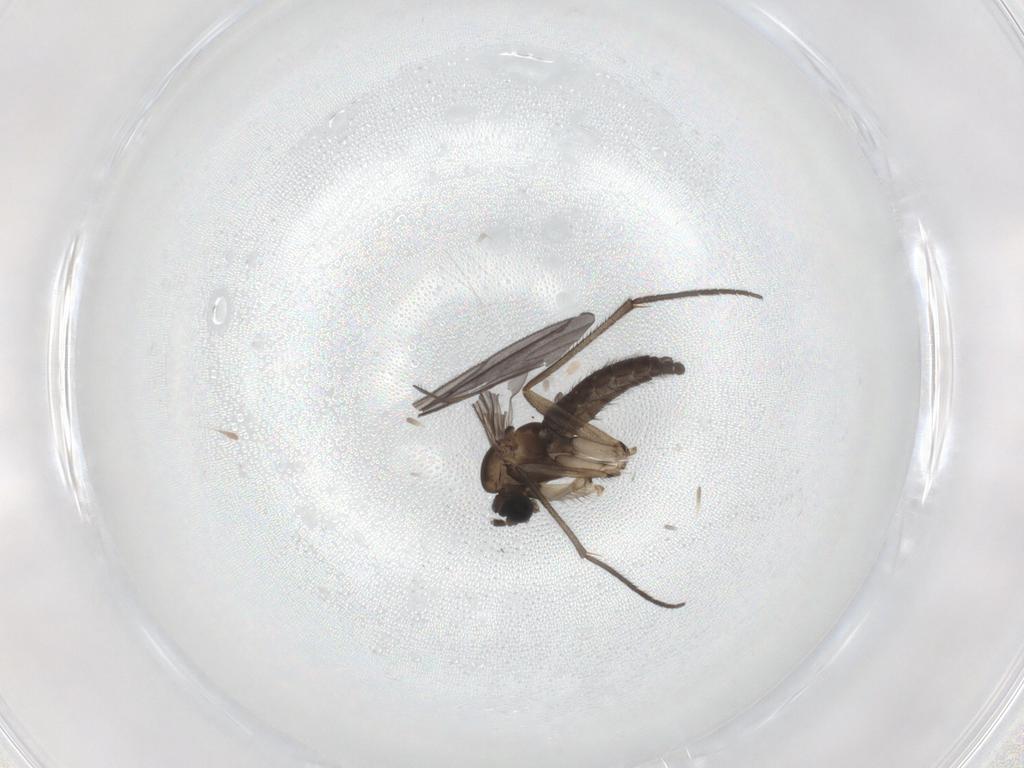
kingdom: Animalia
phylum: Arthropoda
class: Insecta
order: Diptera
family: Sciaridae
